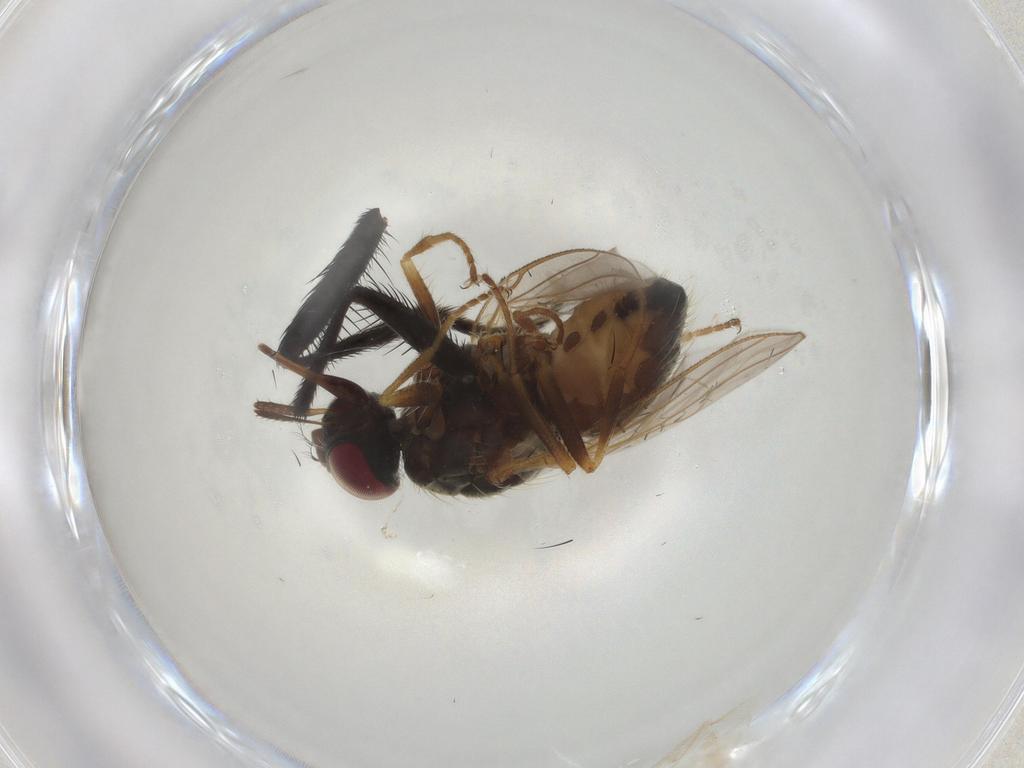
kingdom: Animalia
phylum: Arthropoda
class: Insecta
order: Diptera
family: Muscidae
